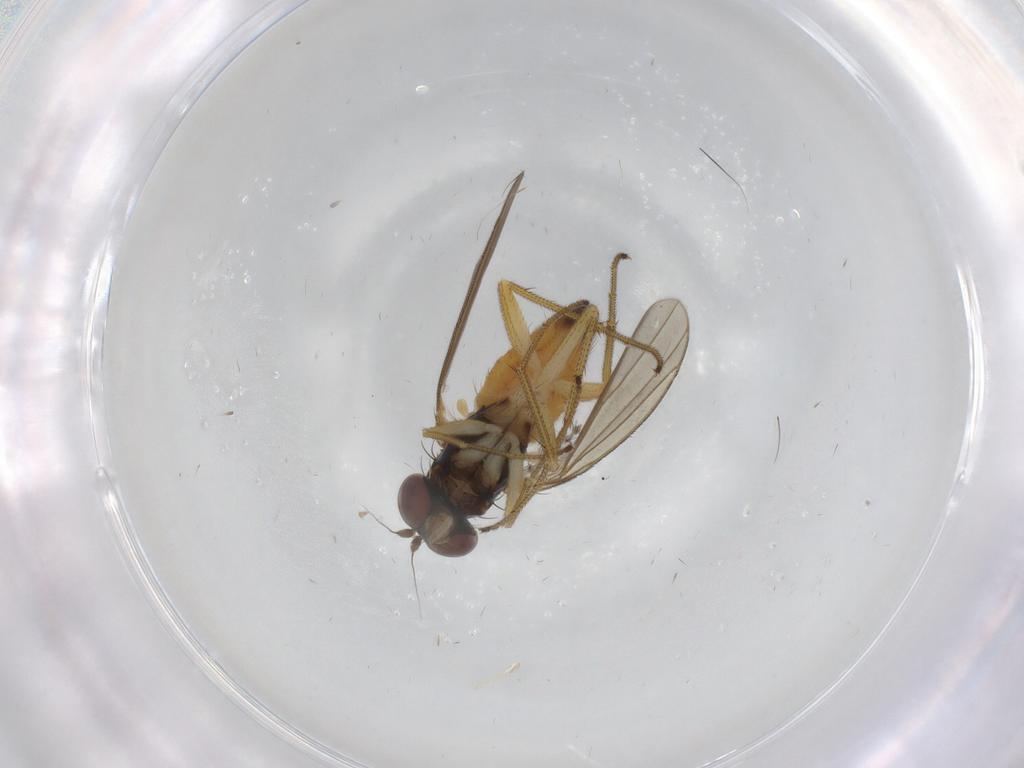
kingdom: Animalia
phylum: Arthropoda
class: Insecta
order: Diptera
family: Dolichopodidae
